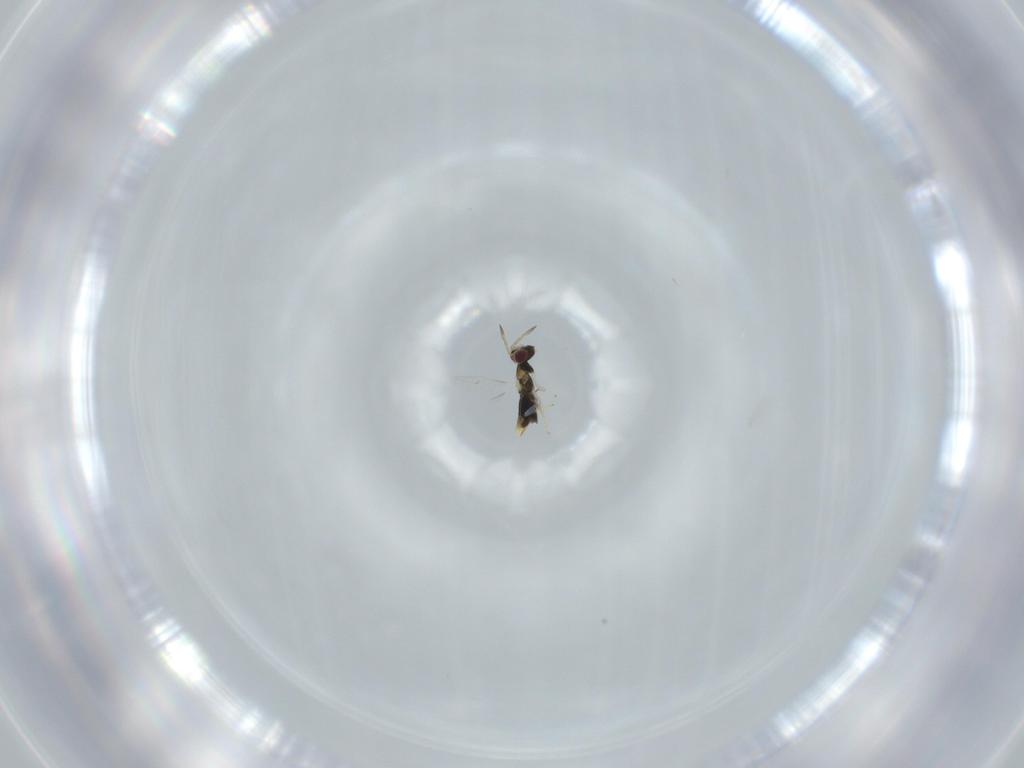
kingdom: Animalia
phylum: Arthropoda
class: Insecta
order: Hymenoptera
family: Aphelinidae
